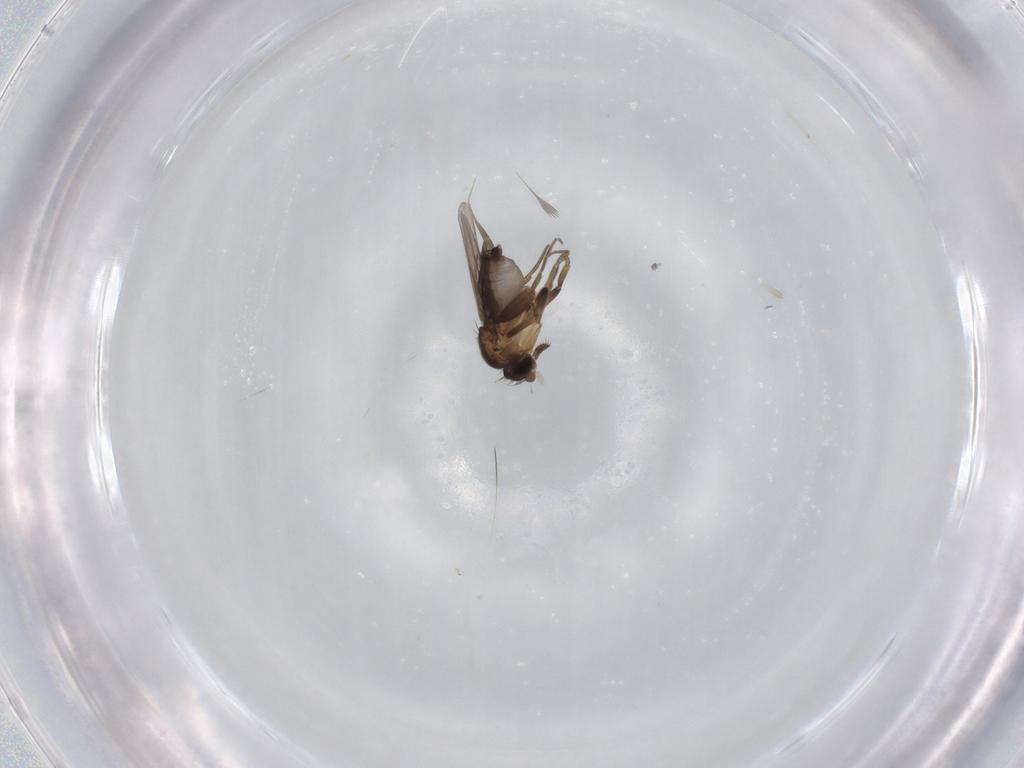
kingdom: Animalia
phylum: Arthropoda
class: Insecta
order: Diptera
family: Phoridae
